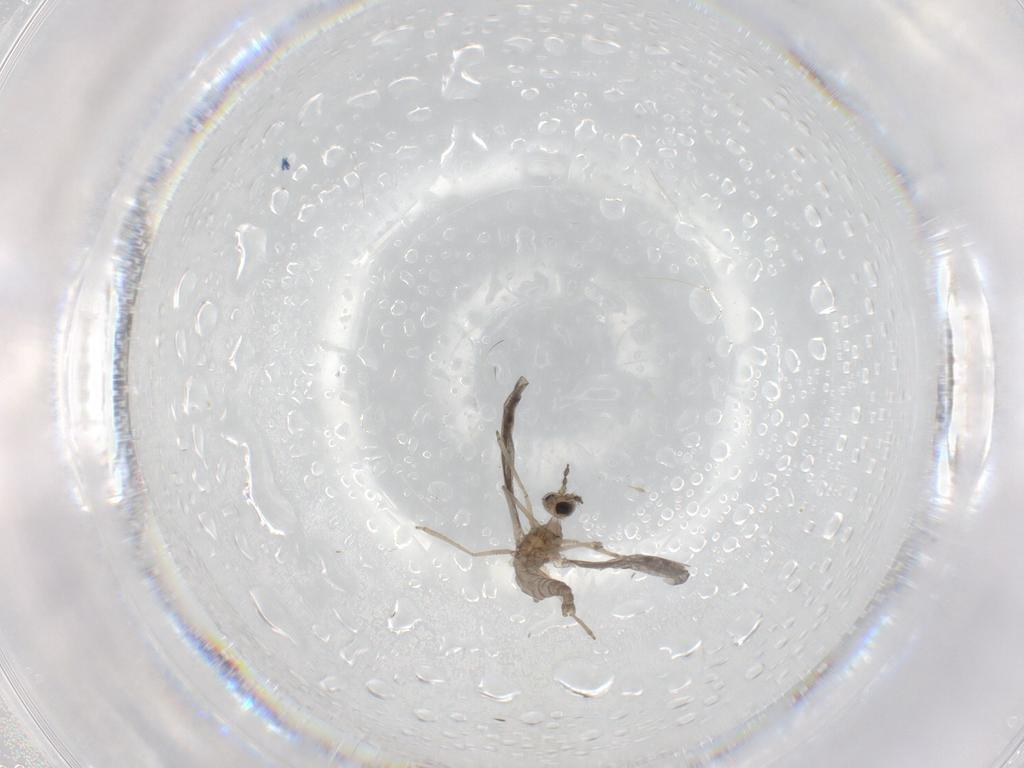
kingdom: Animalia
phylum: Arthropoda
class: Insecta
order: Diptera
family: Cecidomyiidae
